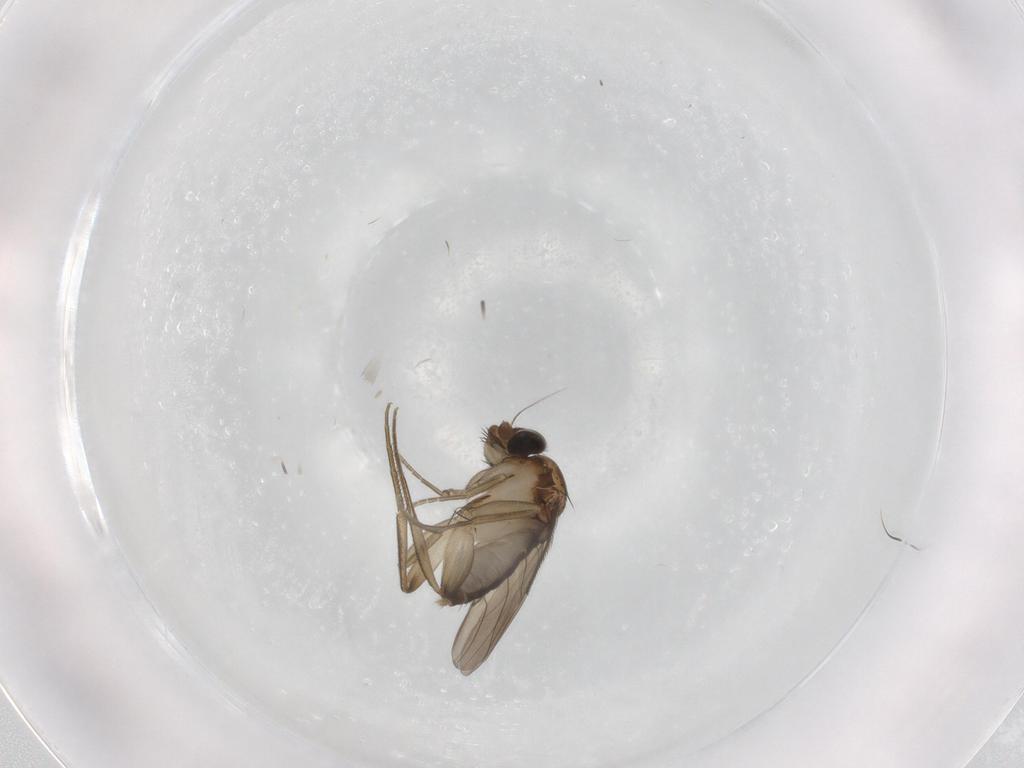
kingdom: Animalia
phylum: Arthropoda
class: Insecta
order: Diptera
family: Phoridae
